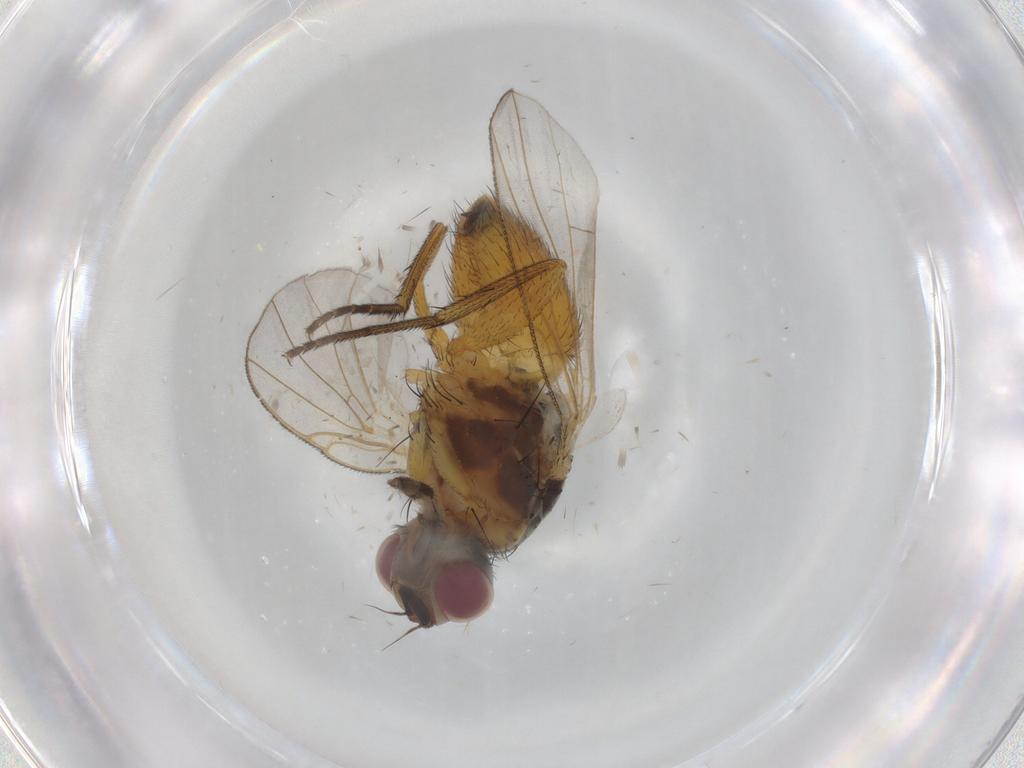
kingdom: Animalia
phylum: Arthropoda
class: Insecta
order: Diptera
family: Muscidae
